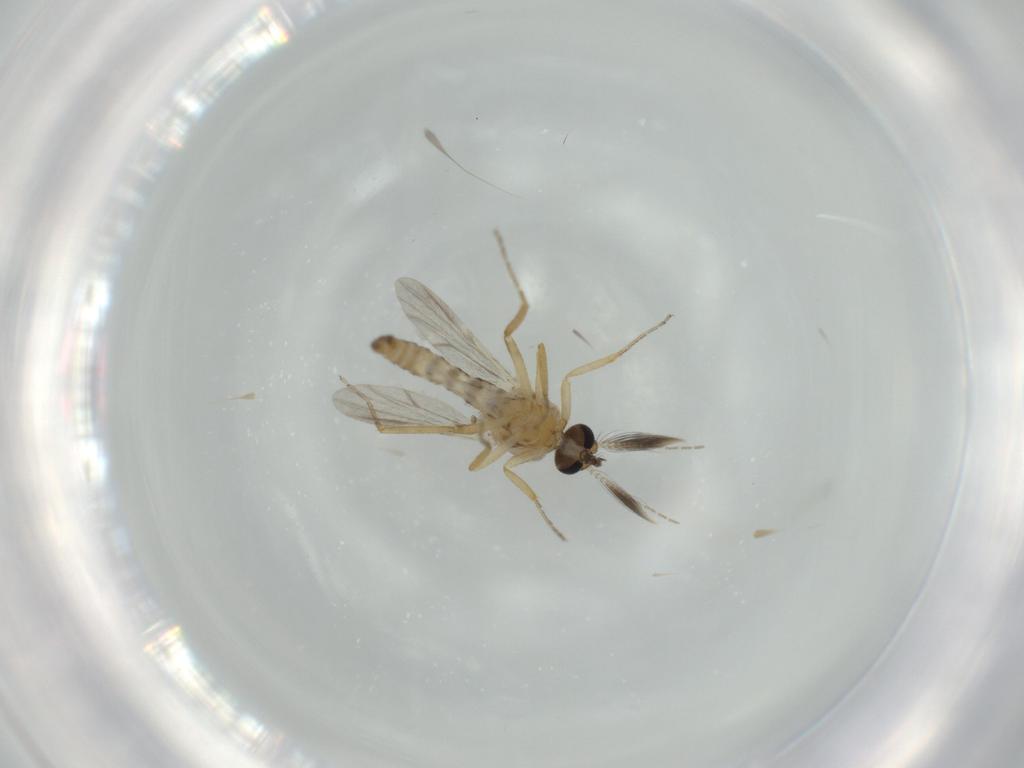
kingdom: Animalia
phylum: Arthropoda
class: Insecta
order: Diptera
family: Ceratopogonidae
